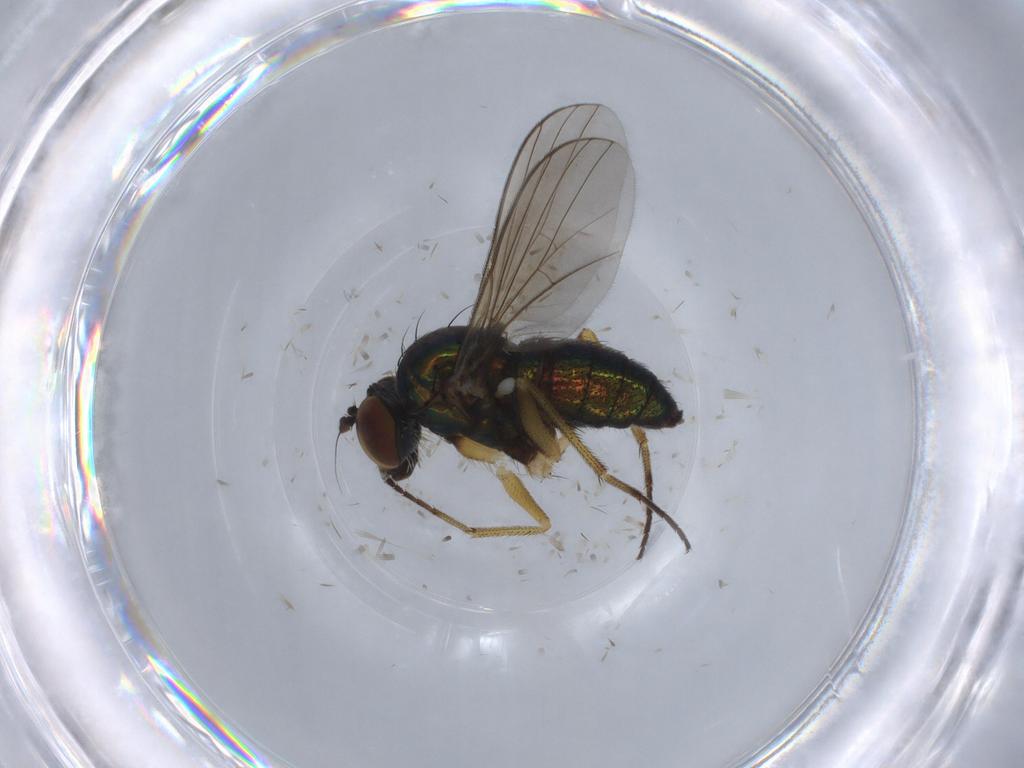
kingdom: Animalia
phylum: Arthropoda
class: Insecta
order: Diptera
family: Dolichopodidae
